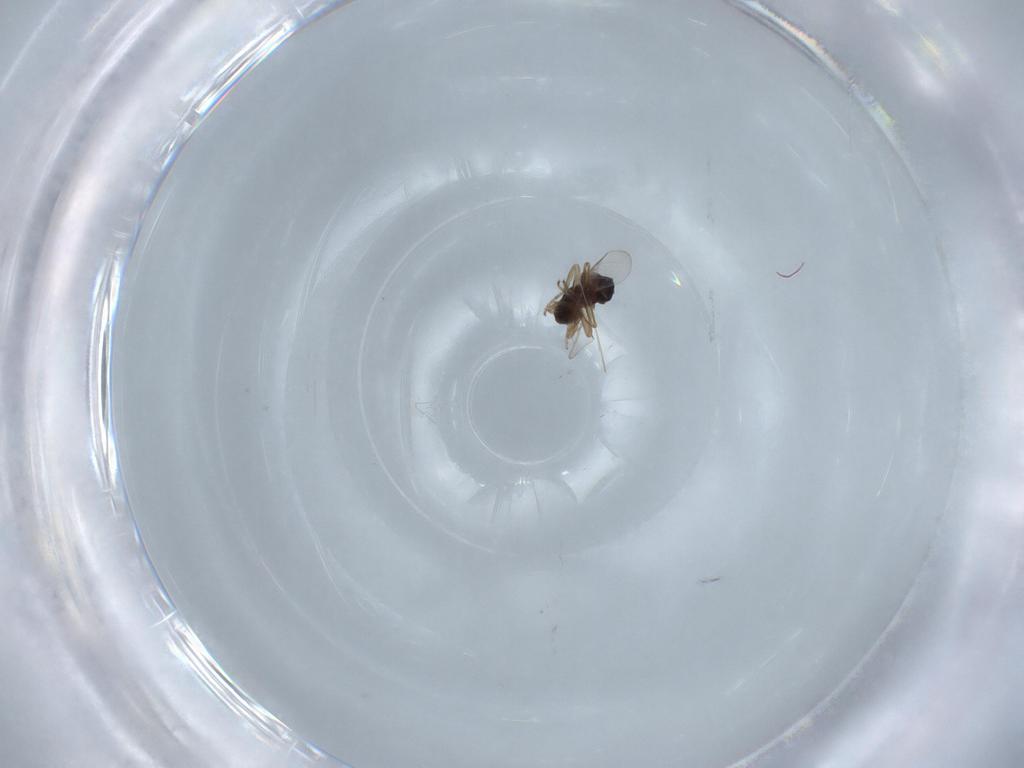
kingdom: Animalia
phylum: Arthropoda
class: Insecta
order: Diptera
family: Ceratopogonidae
